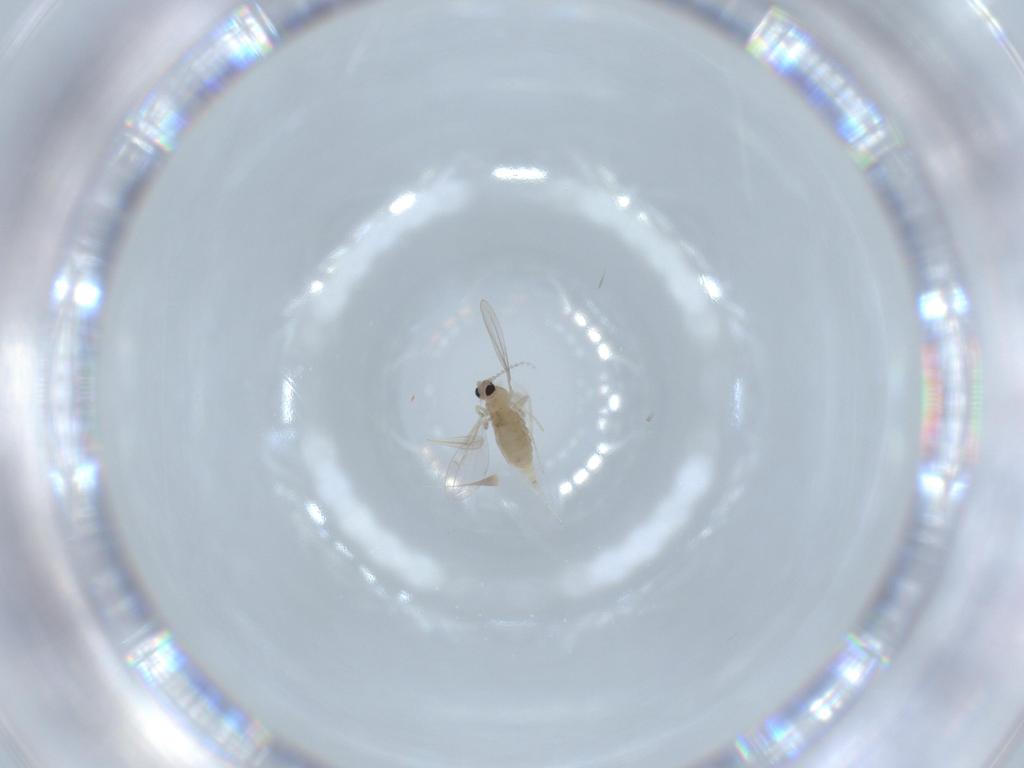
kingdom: Animalia
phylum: Arthropoda
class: Insecta
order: Diptera
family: Cecidomyiidae
